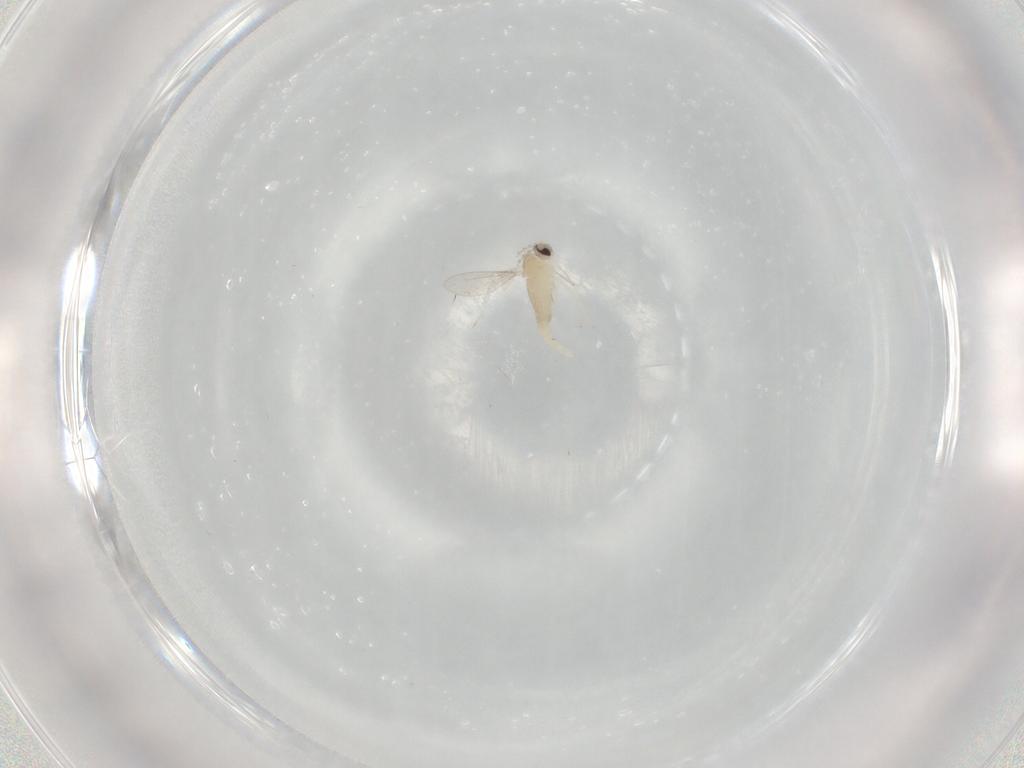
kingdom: Animalia
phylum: Arthropoda
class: Insecta
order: Diptera
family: Cecidomyiidae
